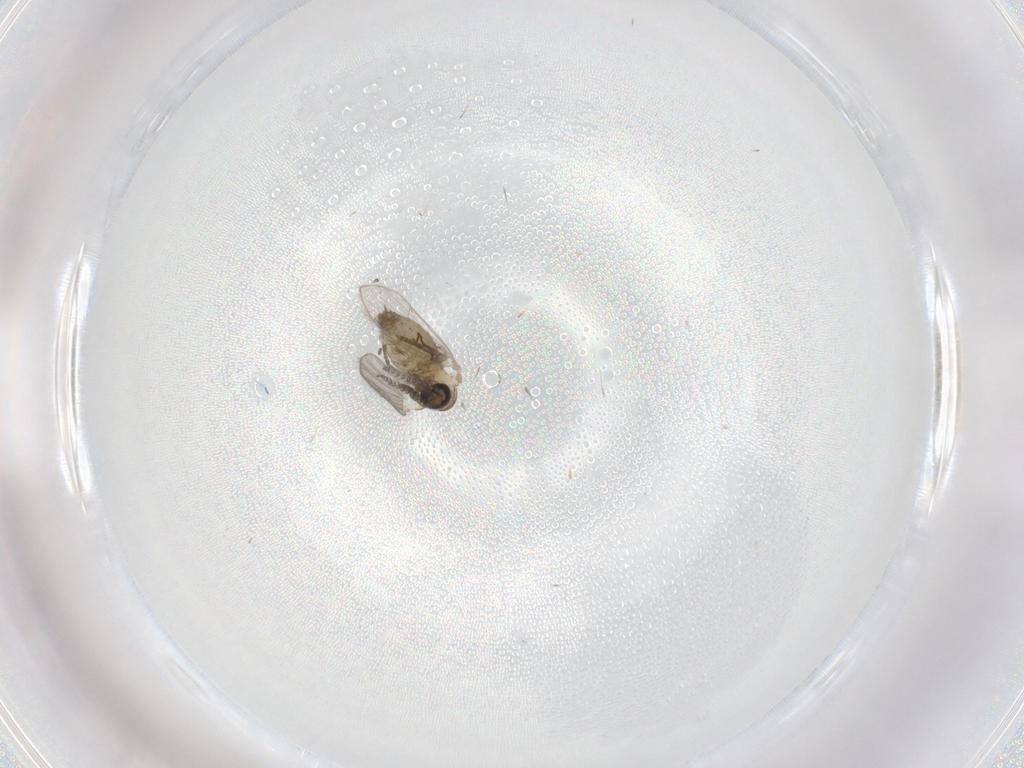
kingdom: Animalia
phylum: Arthropoda
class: Insecta
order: Diptera
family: Psychodidae
